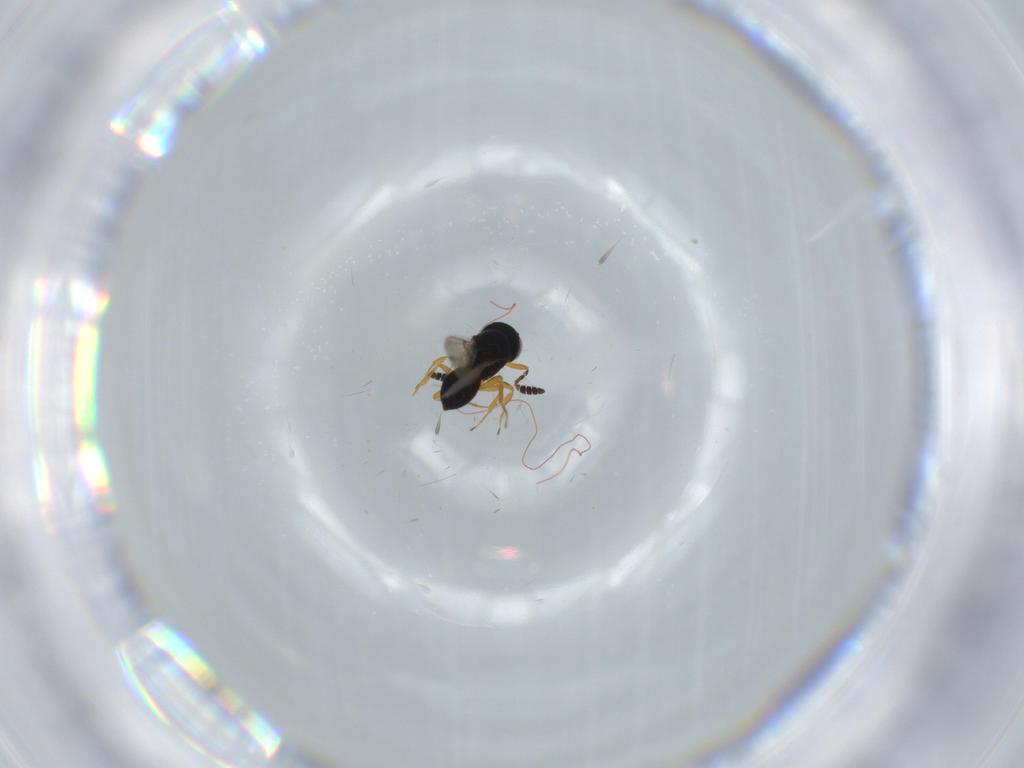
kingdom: Animalia
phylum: Arthropoda
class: Insecta
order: Hymenoptera
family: Scelionidae
